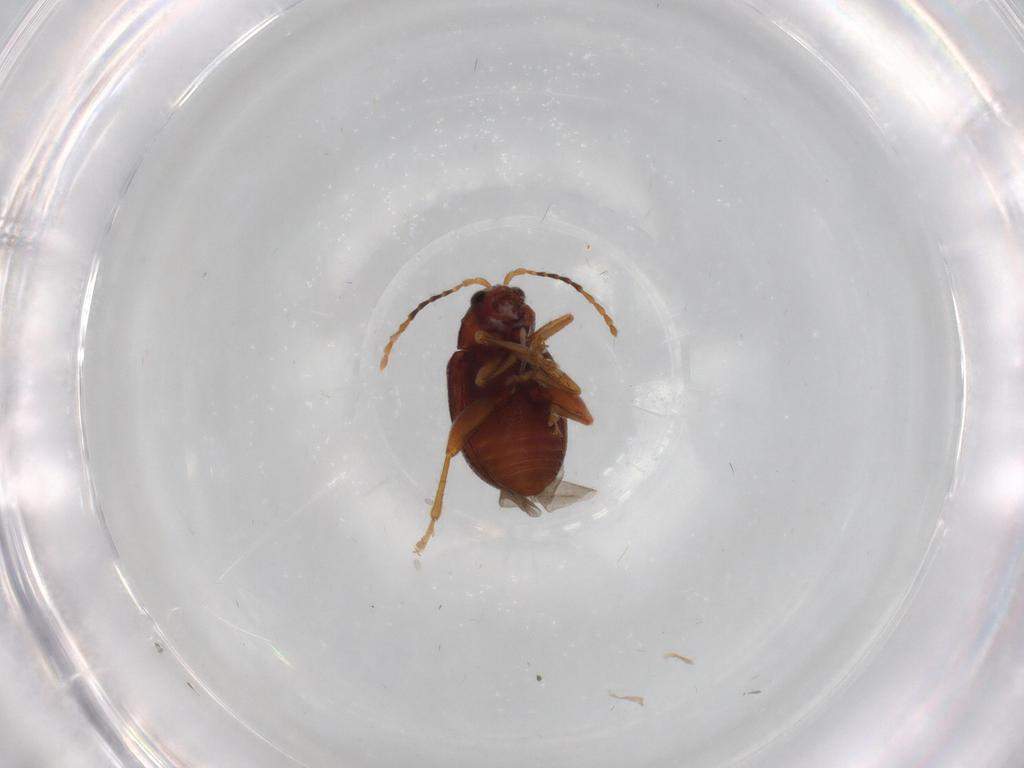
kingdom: Animalia
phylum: Arthropoda
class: Insecta
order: Coleoptera
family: Chrysomelidae
